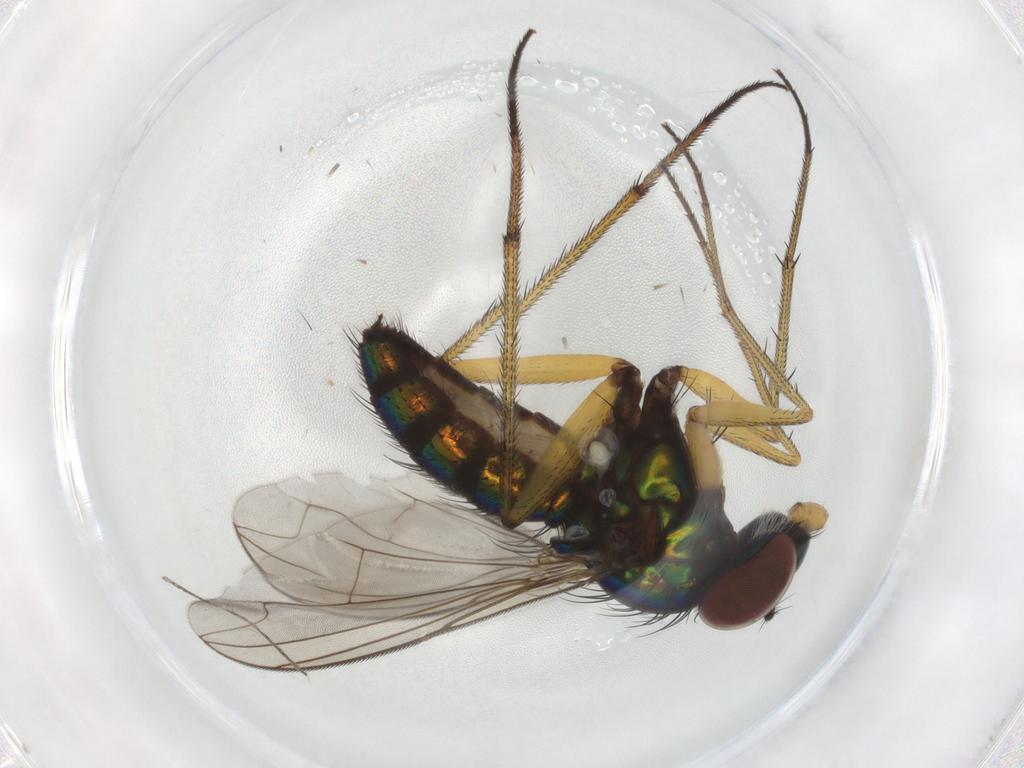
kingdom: Animalia
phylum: Arthropoda
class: Insecta
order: Diptera
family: Dolichopodidae
